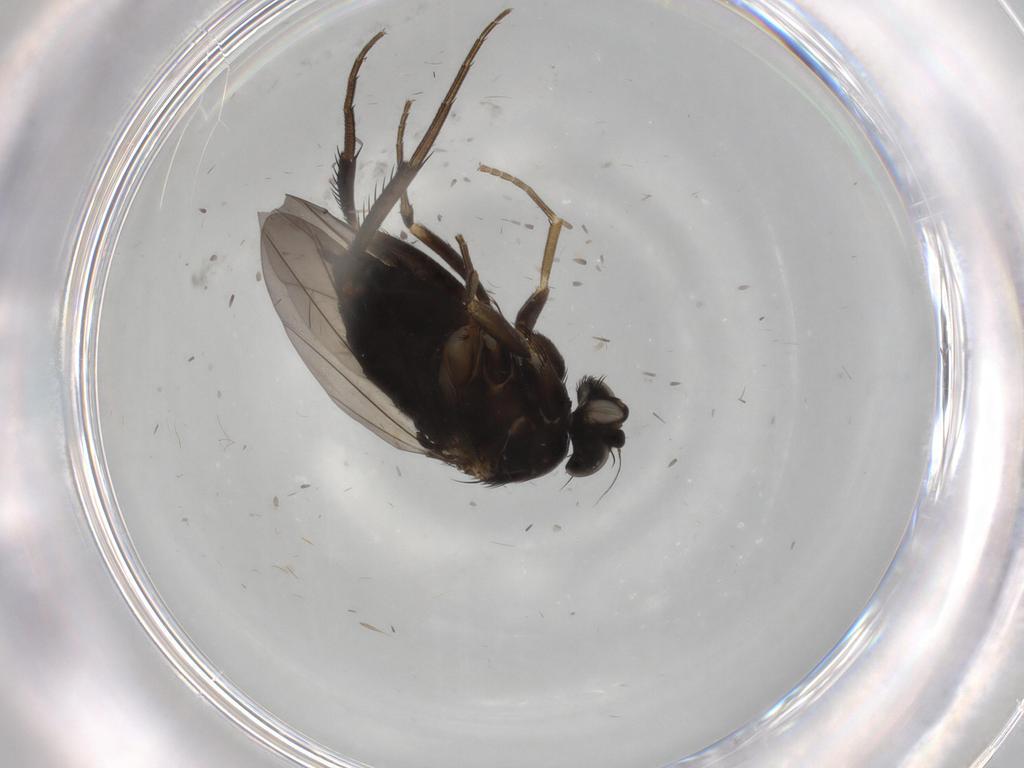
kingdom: Animalia
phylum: Arthropoda
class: Insecta
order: Diptera
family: Phoridae
